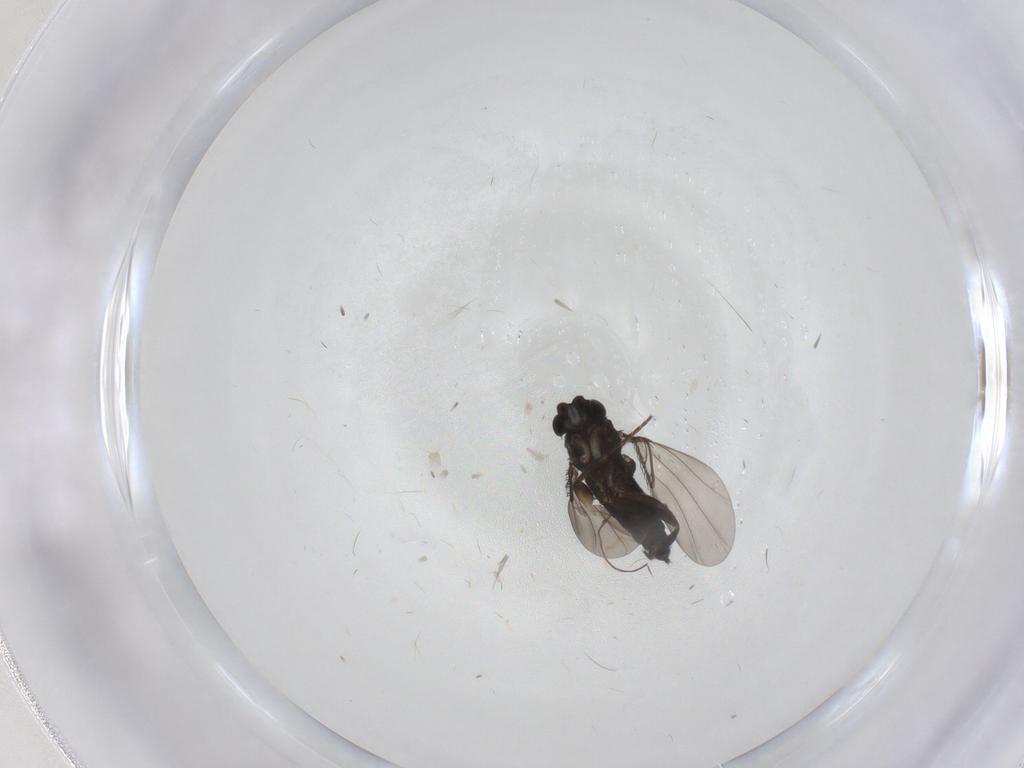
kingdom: Animalia
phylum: Arthropoda
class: Insecta
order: Diptera
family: Phoridae
